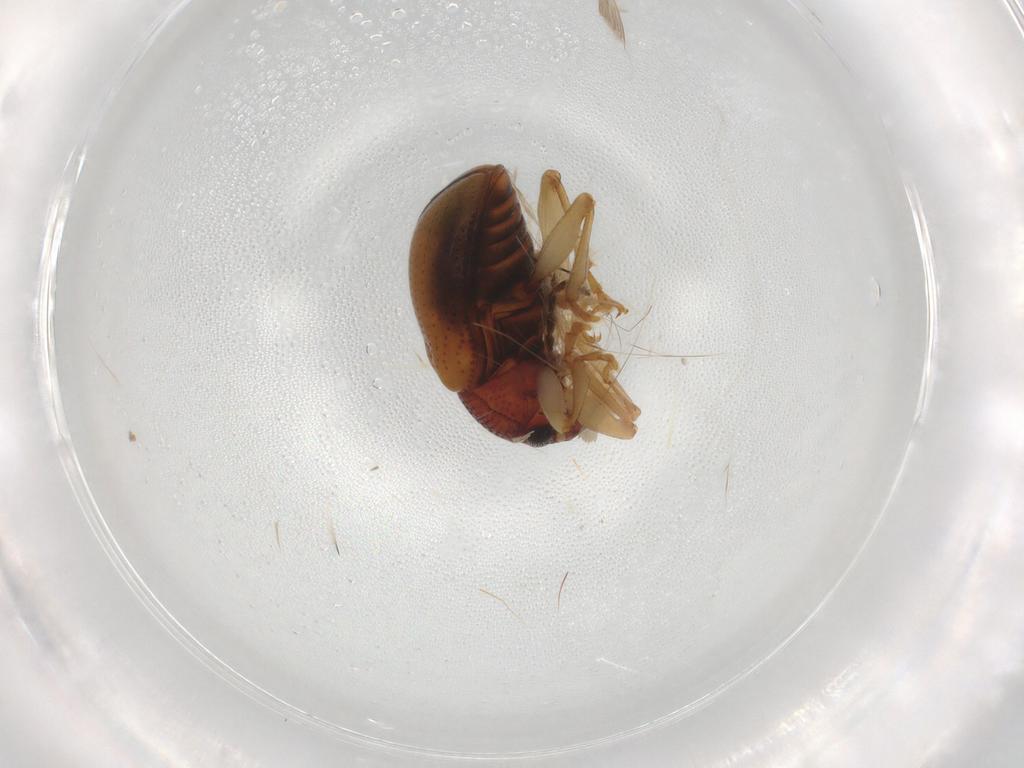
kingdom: Animalia
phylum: Arthropoda
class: Insecta
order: Coleoptera
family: Chrysomelidae
